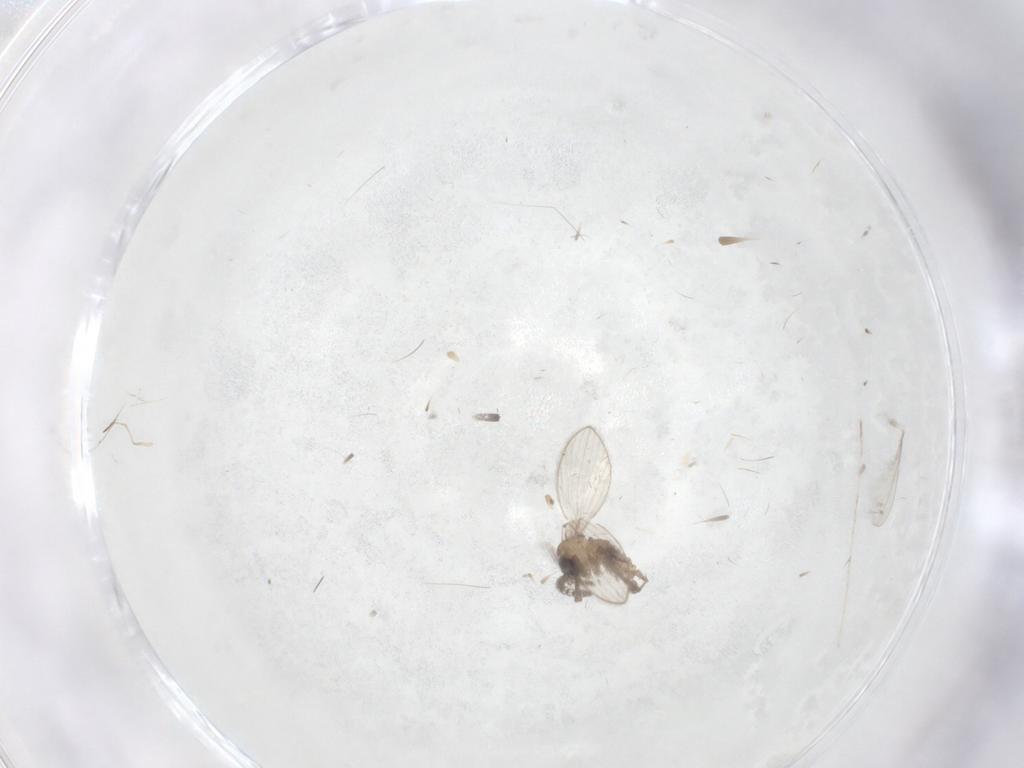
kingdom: Animalia
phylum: Arthropoda
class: Insecta
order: Diptera
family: Psychodidae
